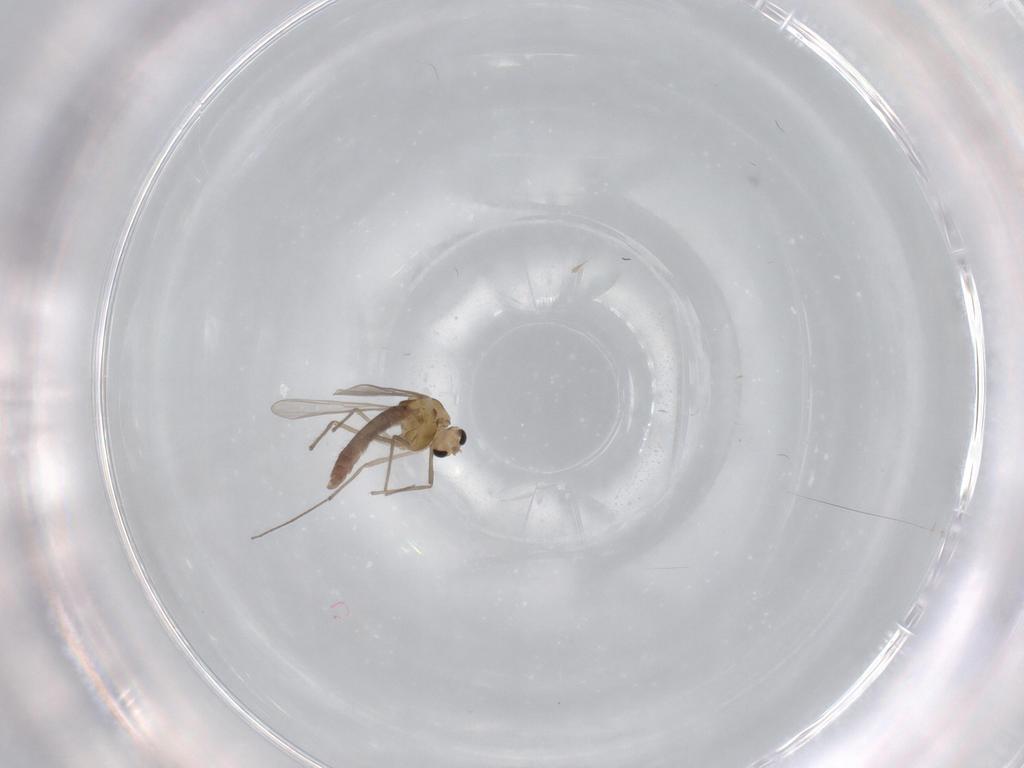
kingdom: Animalia
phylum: Arthropoda
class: Insecta
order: Diptera
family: Chironomidae
